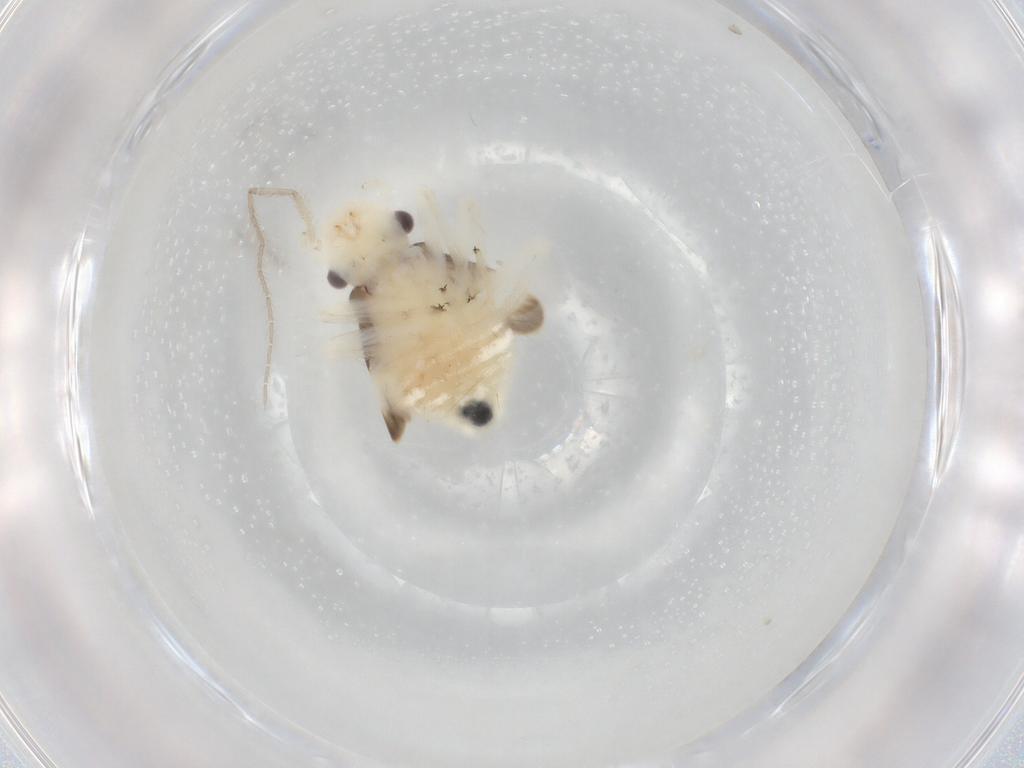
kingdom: Animalia
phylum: Arthropoda
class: Insecta
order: Psocodea
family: Amphipsocidae
